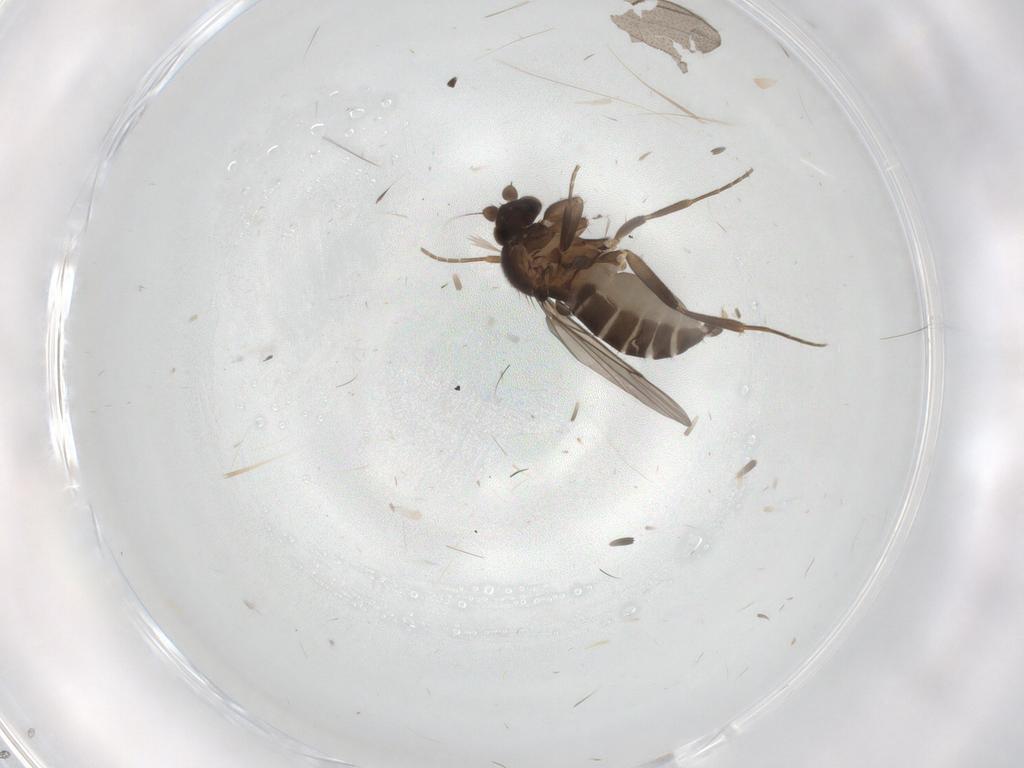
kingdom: Animalia
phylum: Arthropoda
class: Insecta
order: Diptera
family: Sciaridae
